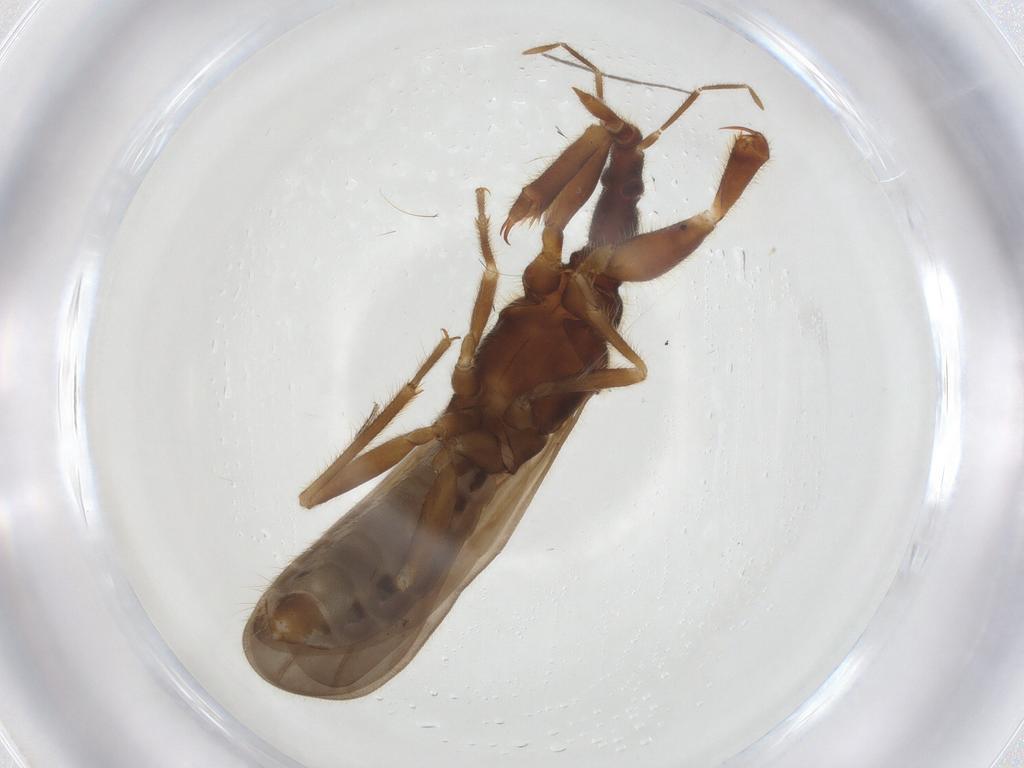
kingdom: Animalia
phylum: Arthropoda
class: Insecta
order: Hemiptera
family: Enicocephalidae
